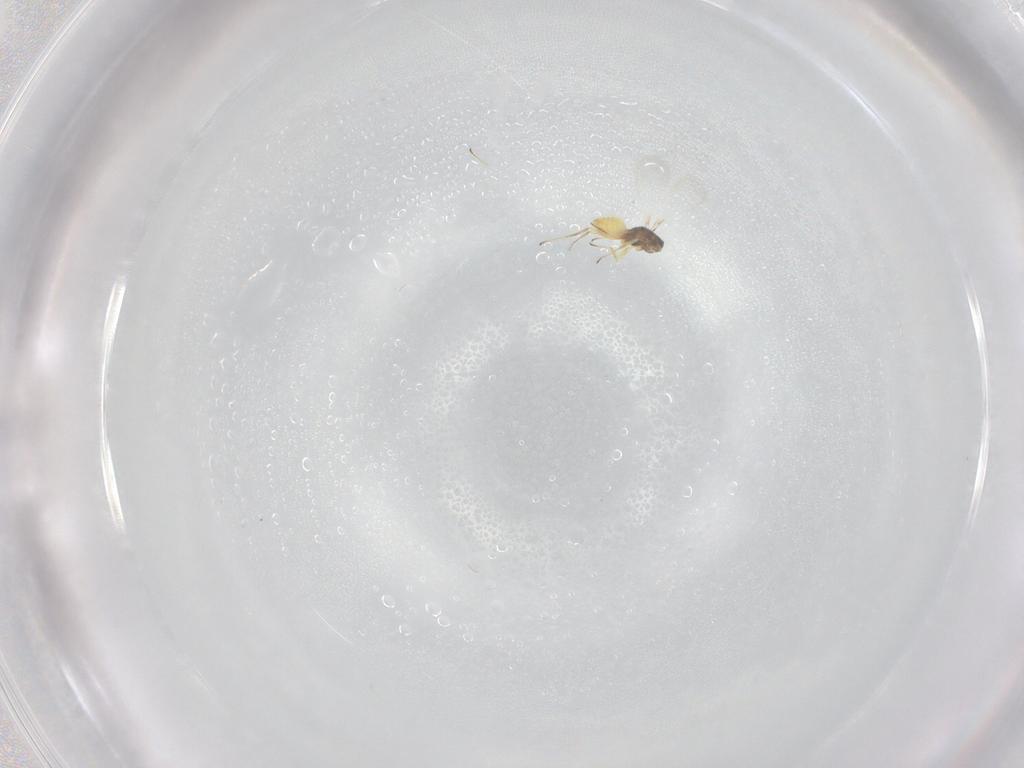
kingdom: Animalia
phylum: Arthropoda
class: Insecta
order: Hymenoptera
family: Mymaridae
